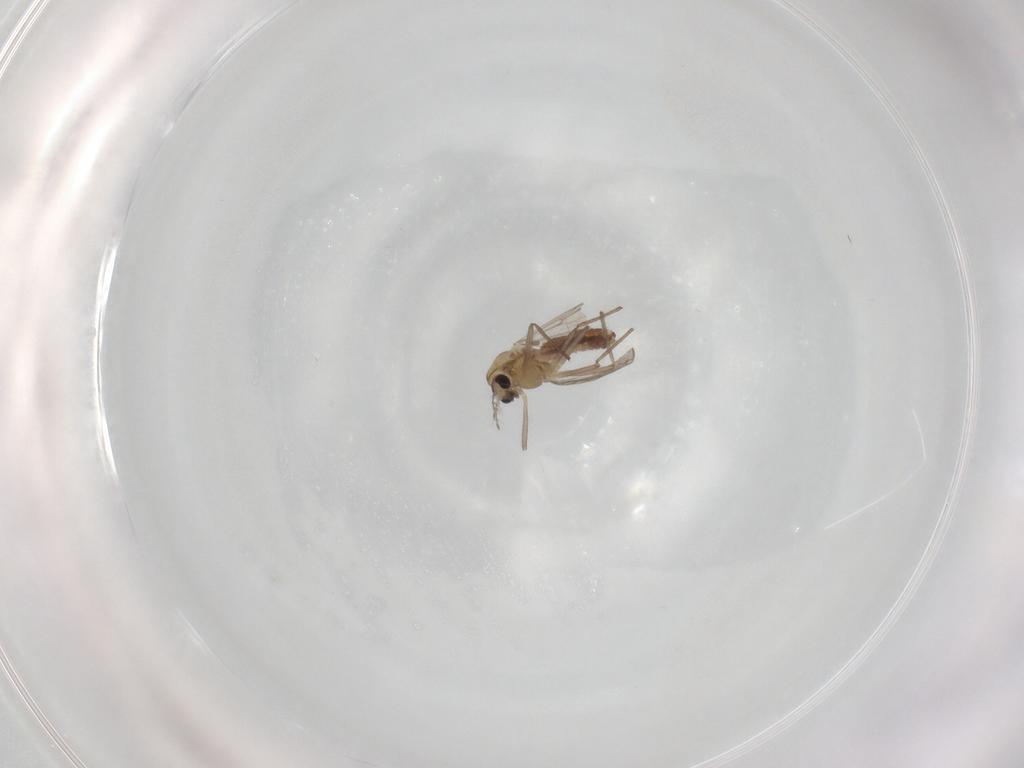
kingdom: Animalia
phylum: Arthropoda
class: Insecta
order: Diptera
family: Chironomidae
